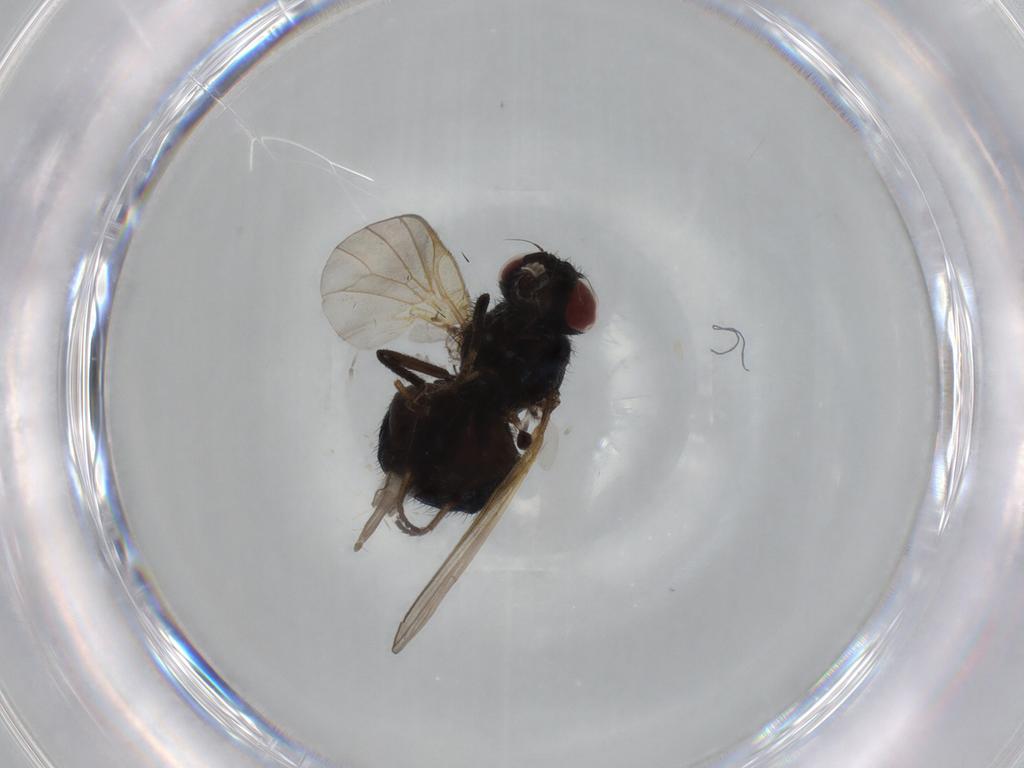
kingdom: Animalia
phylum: Arthropoda
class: Insecta
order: Diptera
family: Lonchaeidae
